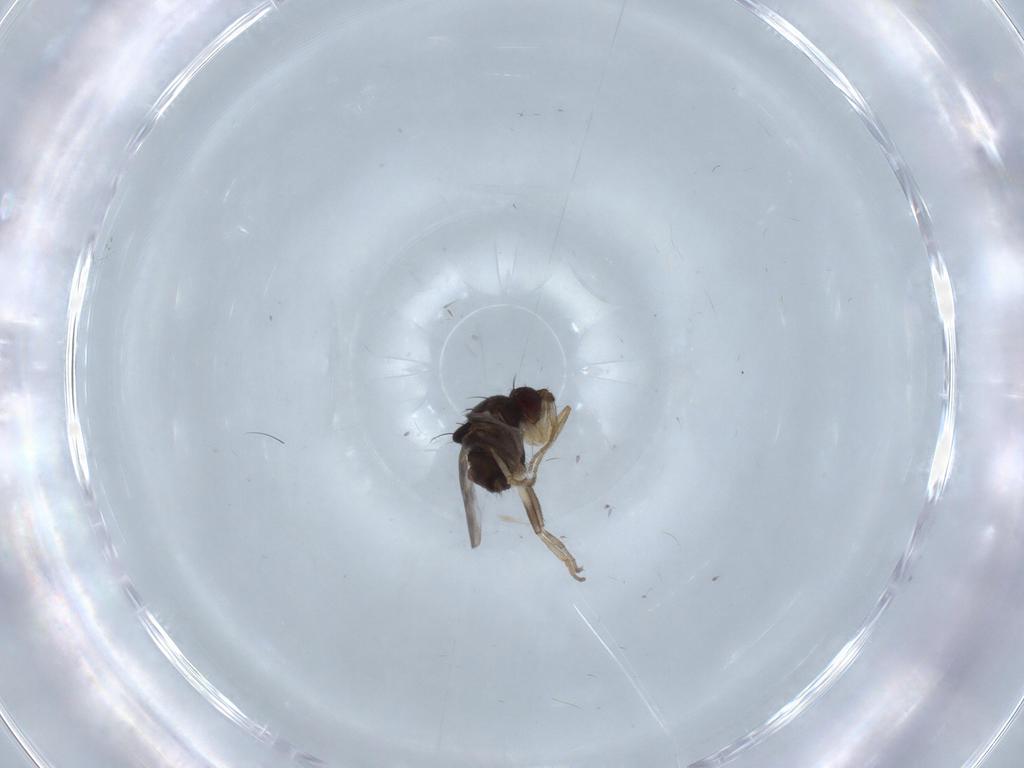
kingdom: Animalia
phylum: Arthropoda
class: Insecta
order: Diptera
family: Sphaeroceridae
